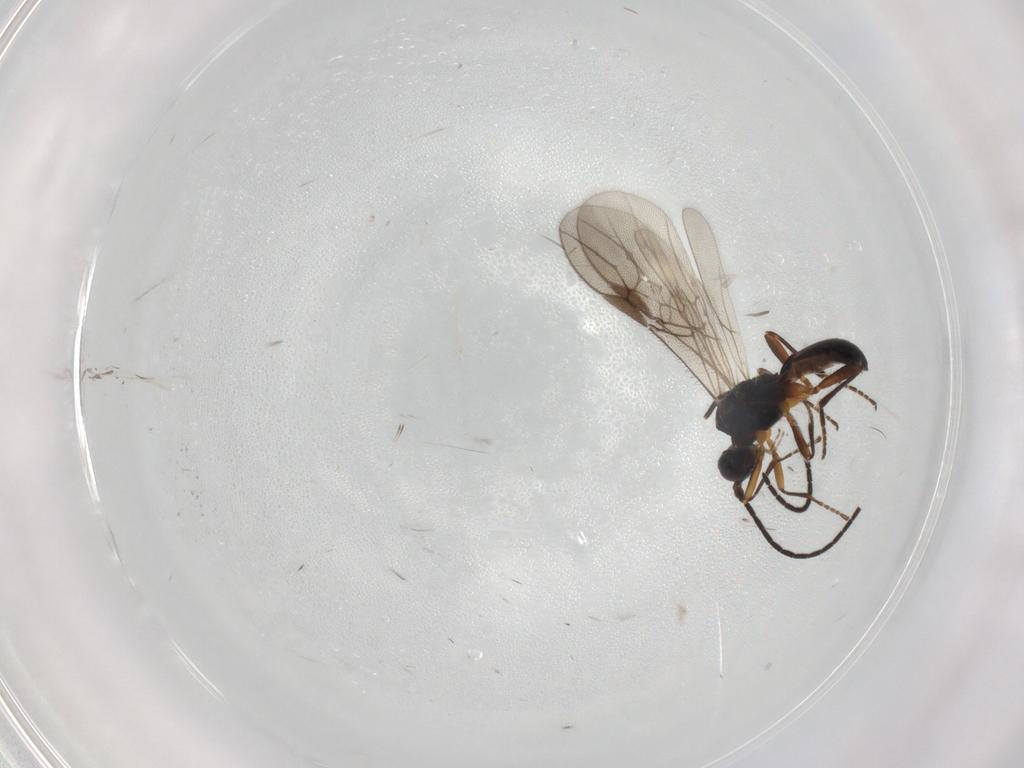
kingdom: Animalia
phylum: Arthropoda
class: Insecta
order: Hymenoptera
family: Braconidae
